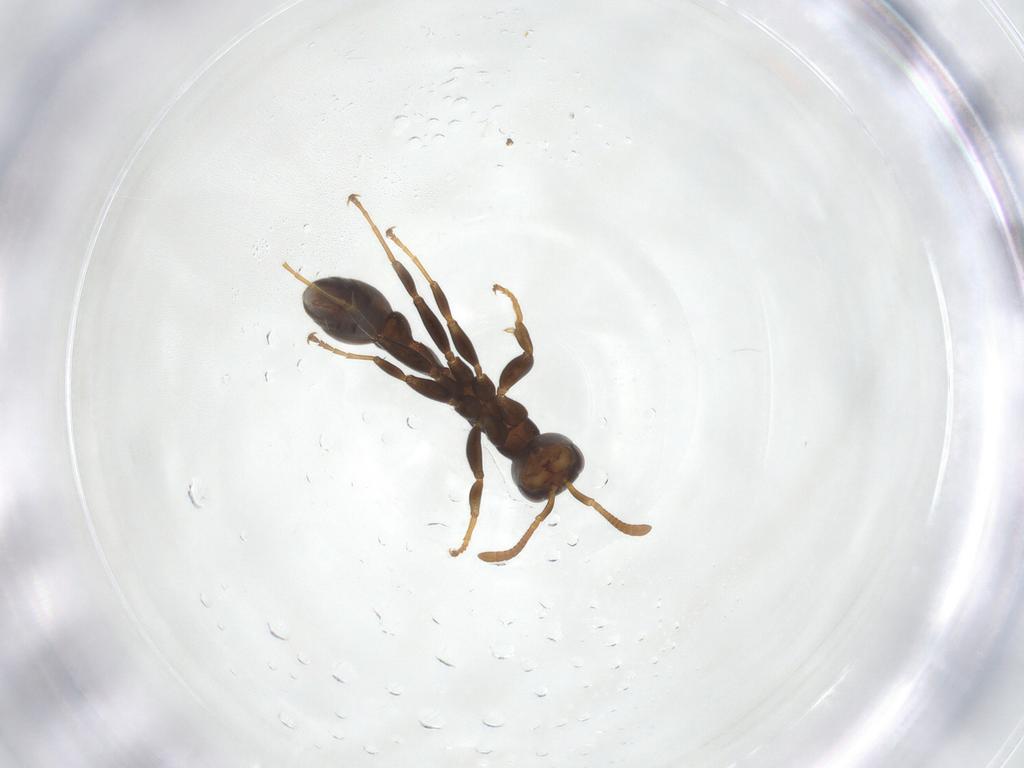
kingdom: Animalia
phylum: Arthropoda
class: Insecta
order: Hymenoptera
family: Formicidae
